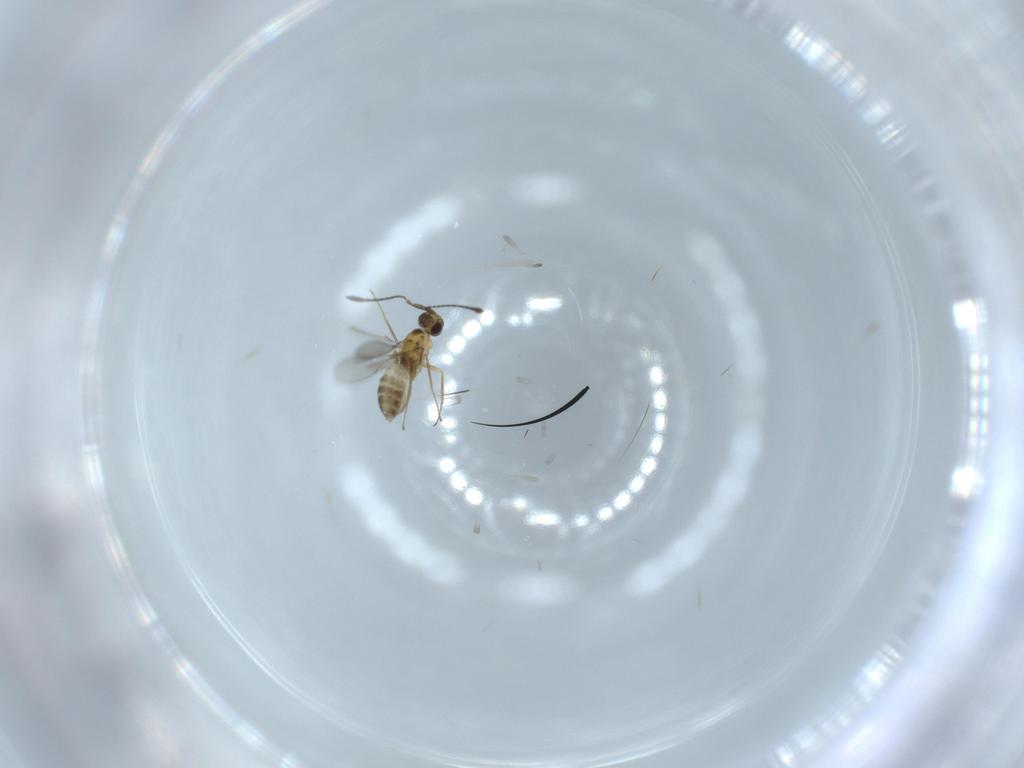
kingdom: Animalia
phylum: Arthropoda
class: Insecta
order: Hymenoptera
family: Mymaridae
